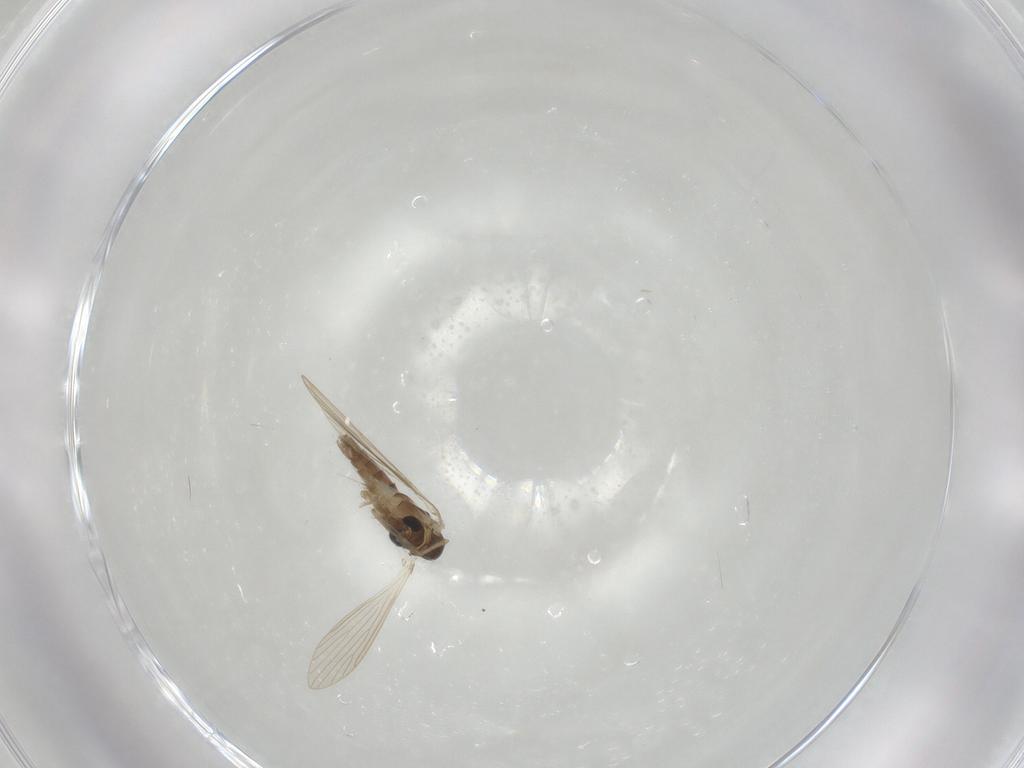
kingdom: Animalia
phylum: Arthropoda
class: Insecta
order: Diptera
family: Psychodidae
